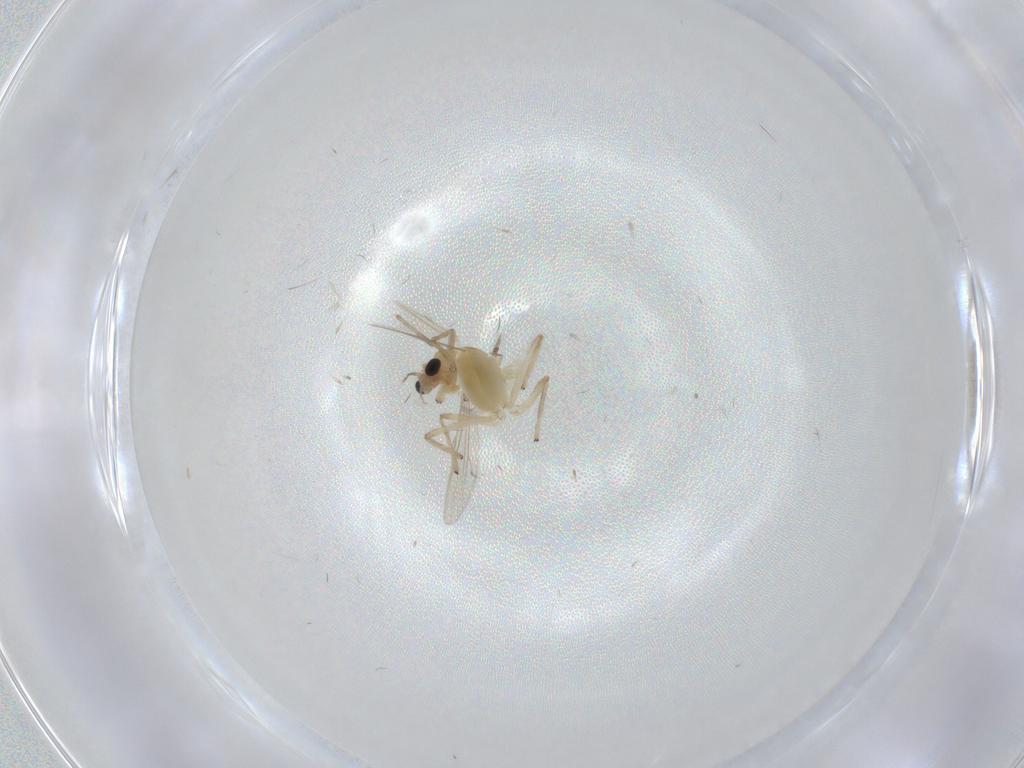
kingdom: Animalia
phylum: Arthropoda
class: Insecta
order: Diptera
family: Chironomidae
